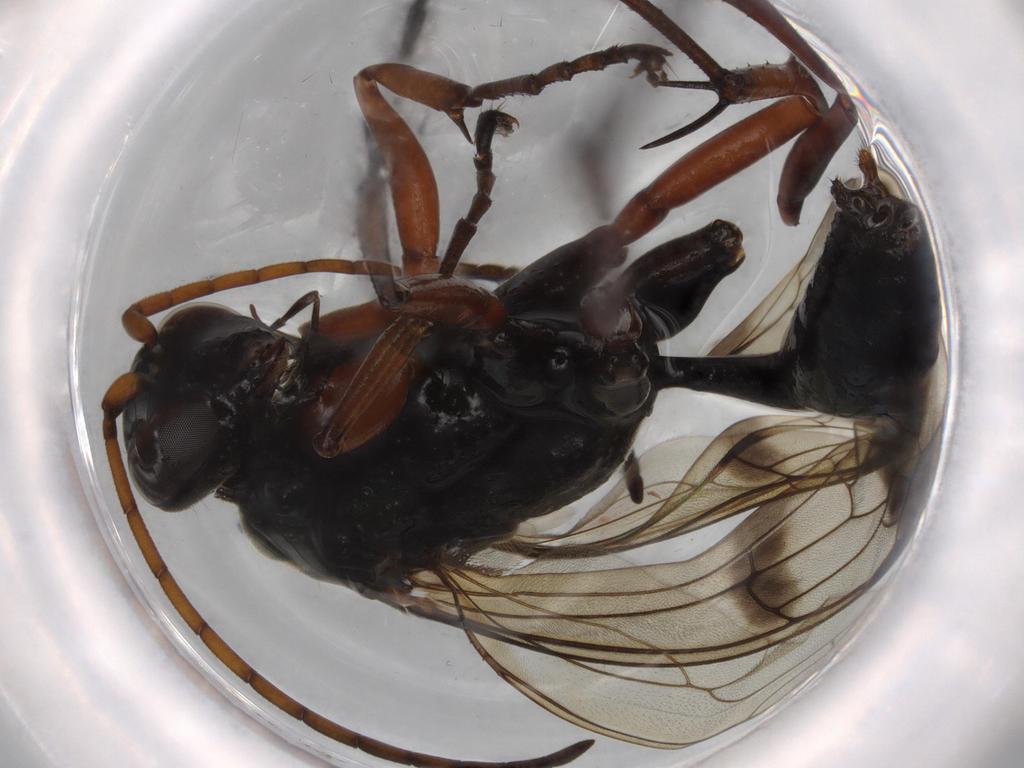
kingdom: Animalia
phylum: Arthropoda
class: Insecta
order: Hymenoptera
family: Pompilidae
